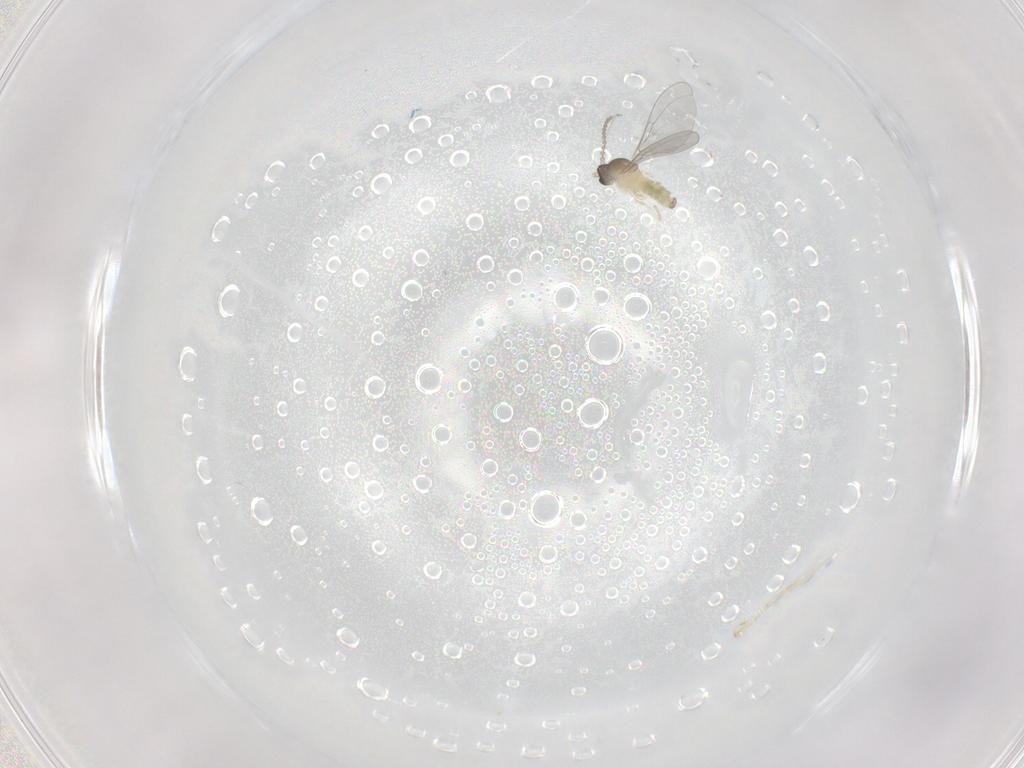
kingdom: Animalia
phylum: Arthropoda
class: Insecta
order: Diptera
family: Cecidomyiidae
